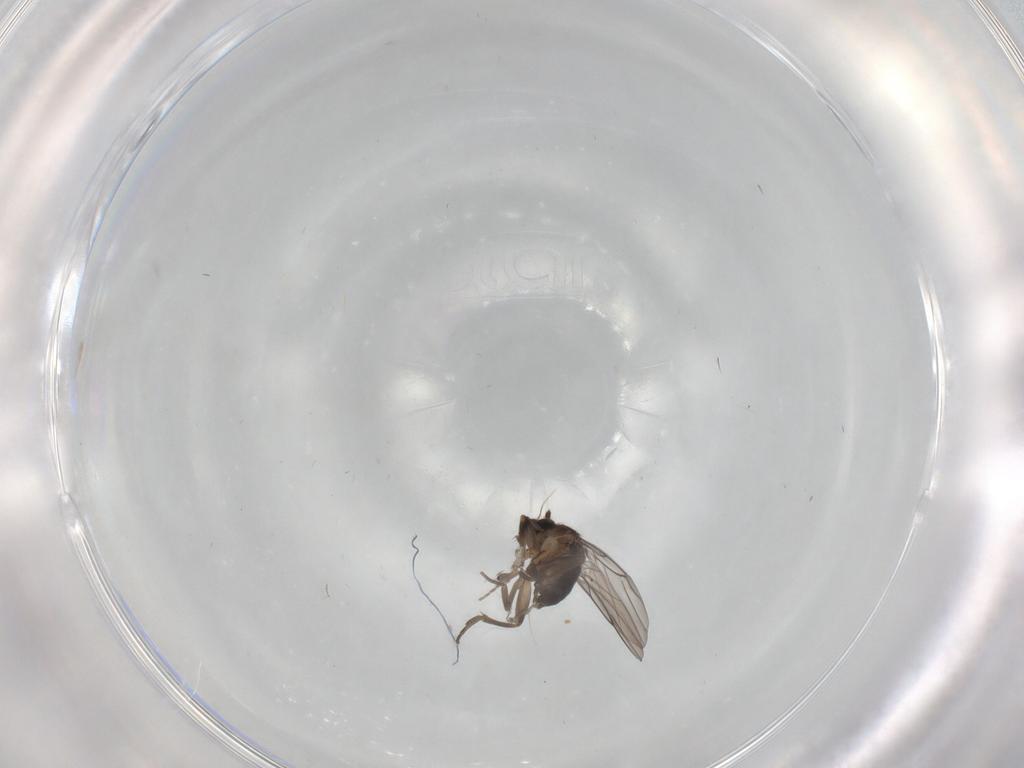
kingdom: Animalia
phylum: Arthropoda
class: Insecta
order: Diptera
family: Phoridae
